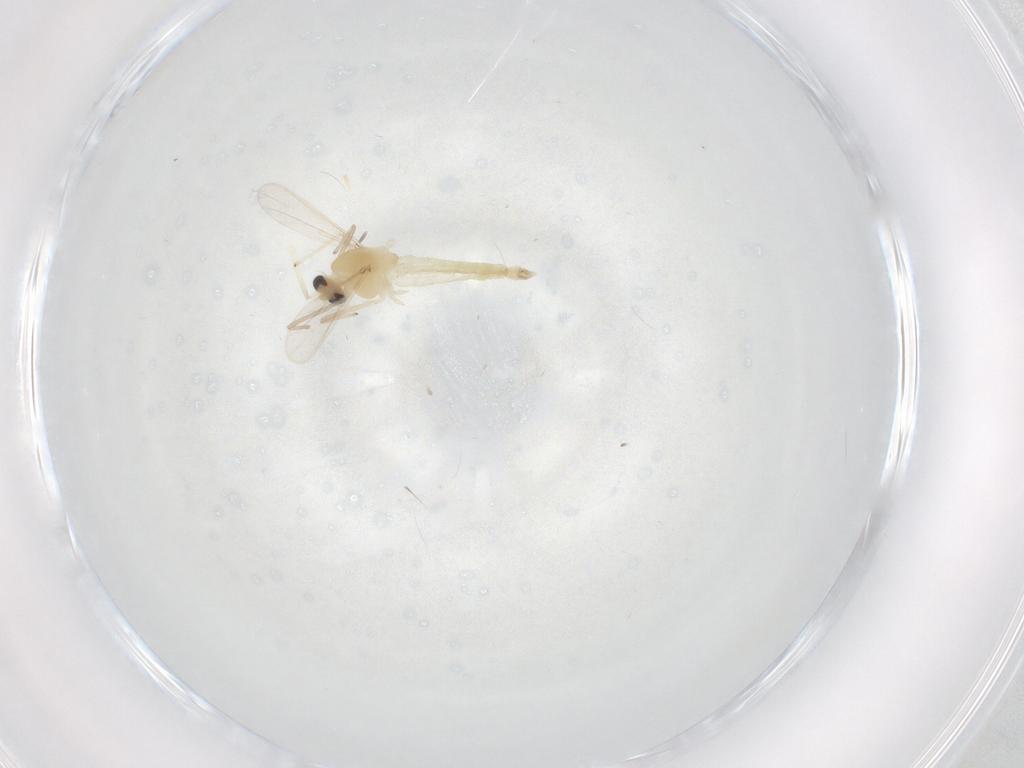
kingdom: Animalia
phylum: Arthropoda
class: Insecta
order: Diptera
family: Chironomidae
